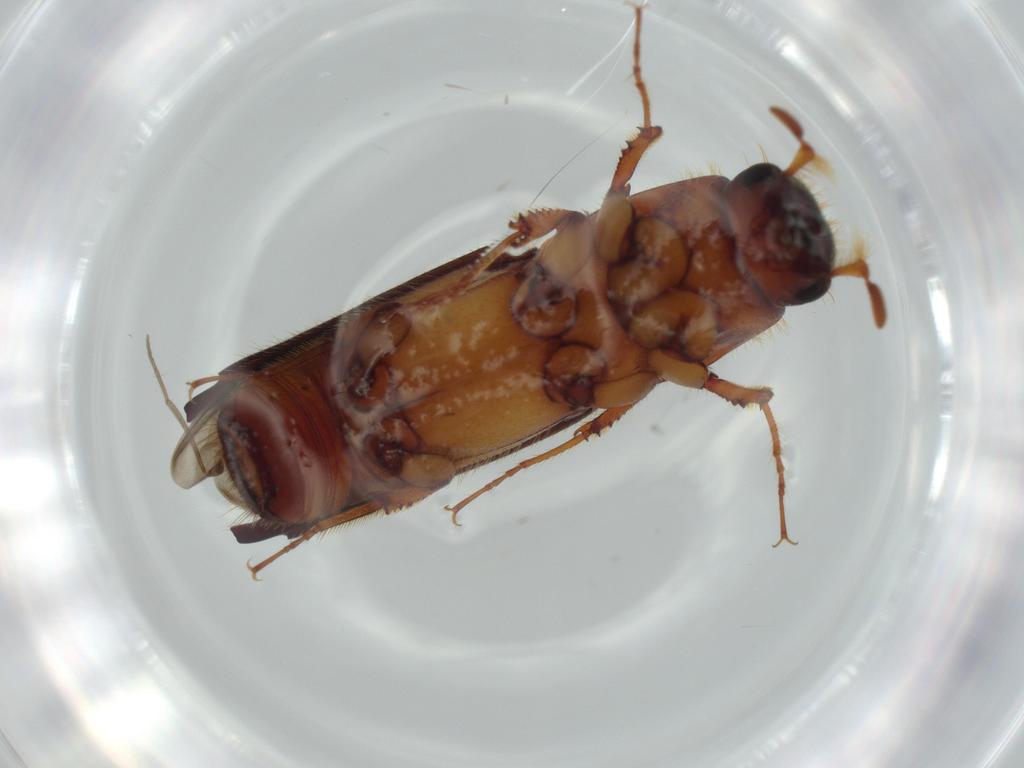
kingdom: Animalia
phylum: Arthropoda
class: Insecta
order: Coleoptera
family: Curculionidae
